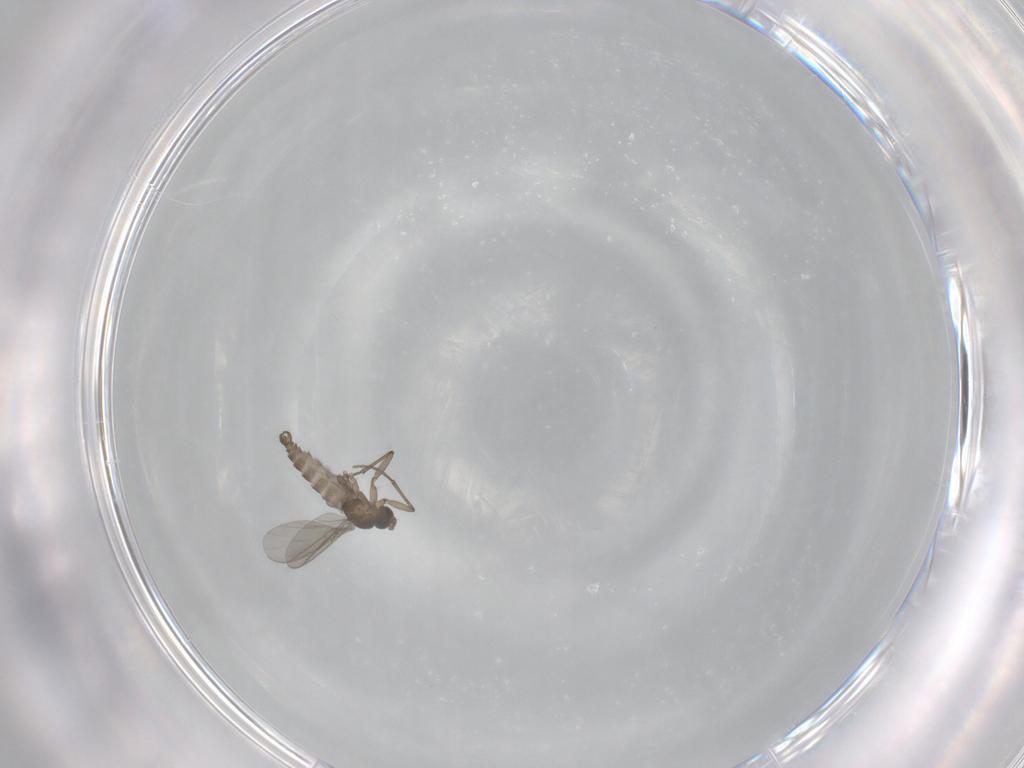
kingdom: Animalia
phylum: Arthropoda
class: Insecta
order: Diptera
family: Sciaridae
